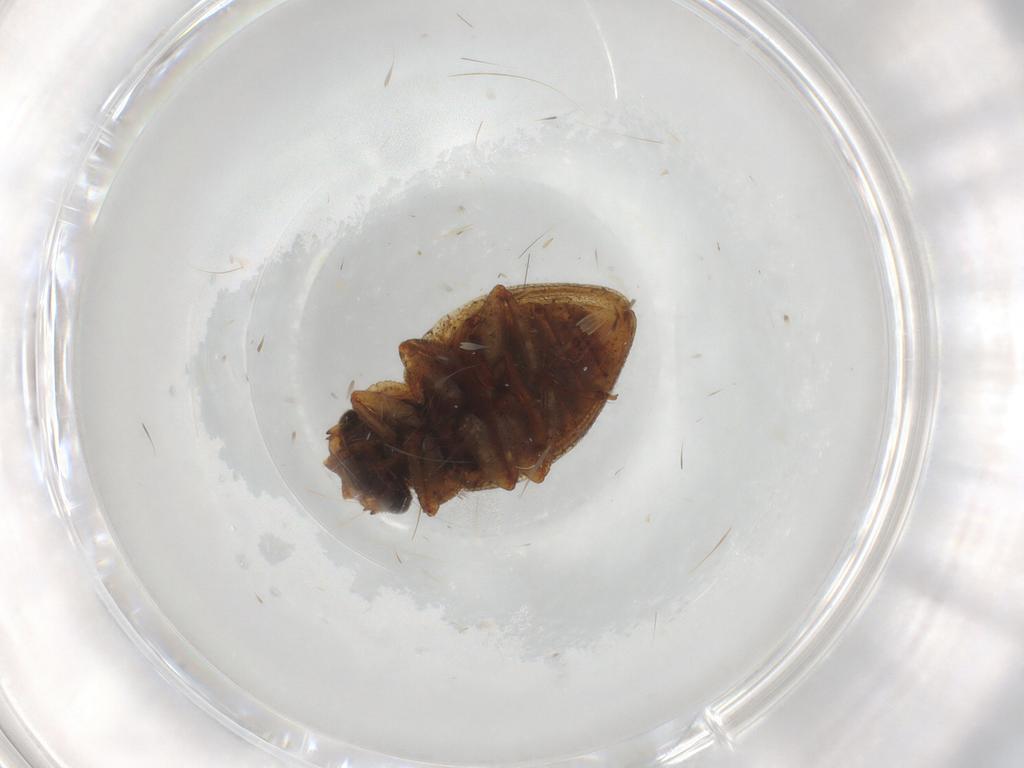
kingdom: Animalia
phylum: Arthropoda
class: Insecta
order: Coleoptera
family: Spercheidae
